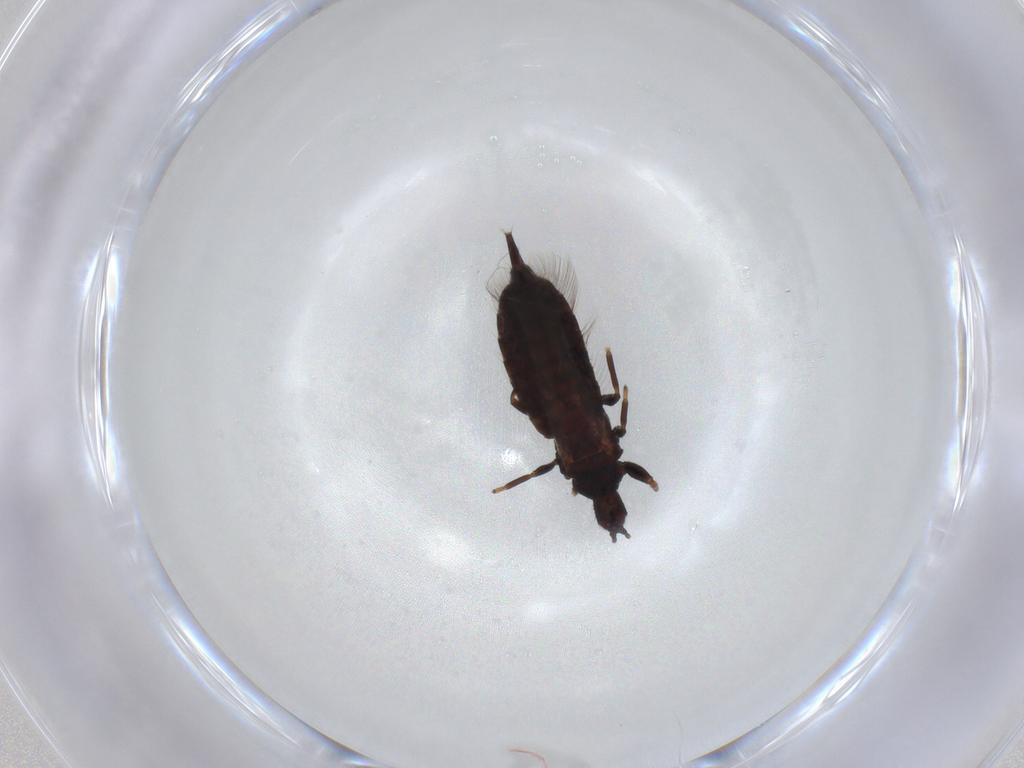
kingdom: Animalia
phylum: Arthropoda
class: Insecta
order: Thysanoptera
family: Phlaeothripidae
